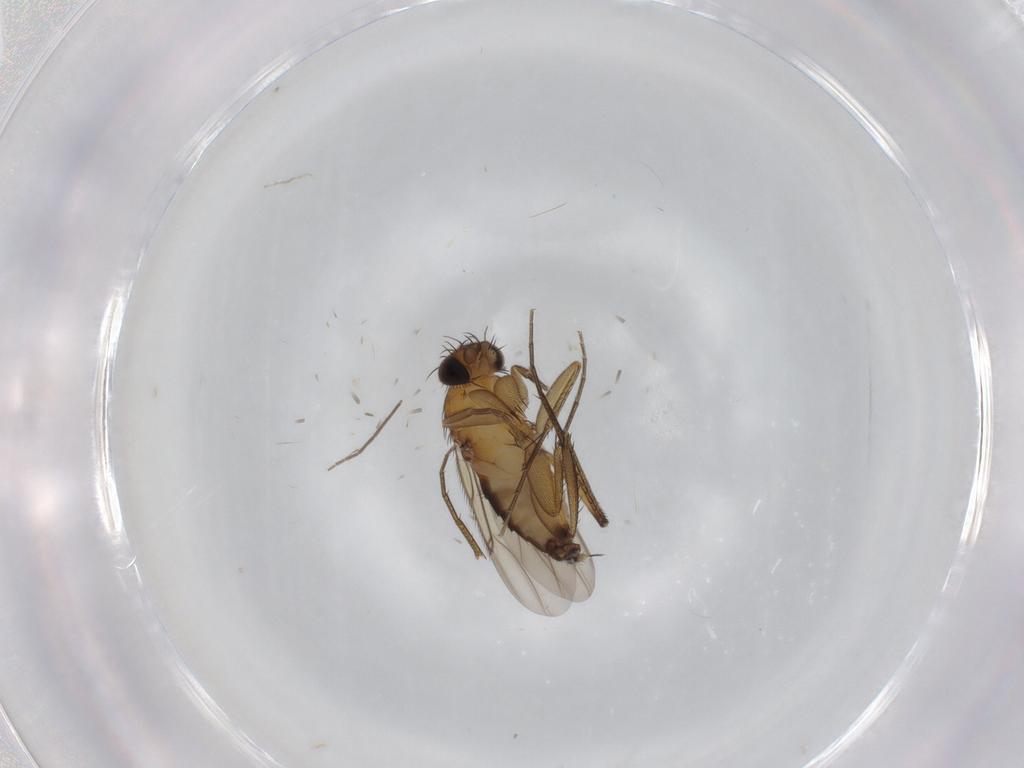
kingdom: Animalia
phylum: Arthropoda
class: Insecta
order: Diptera
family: Phoridae
